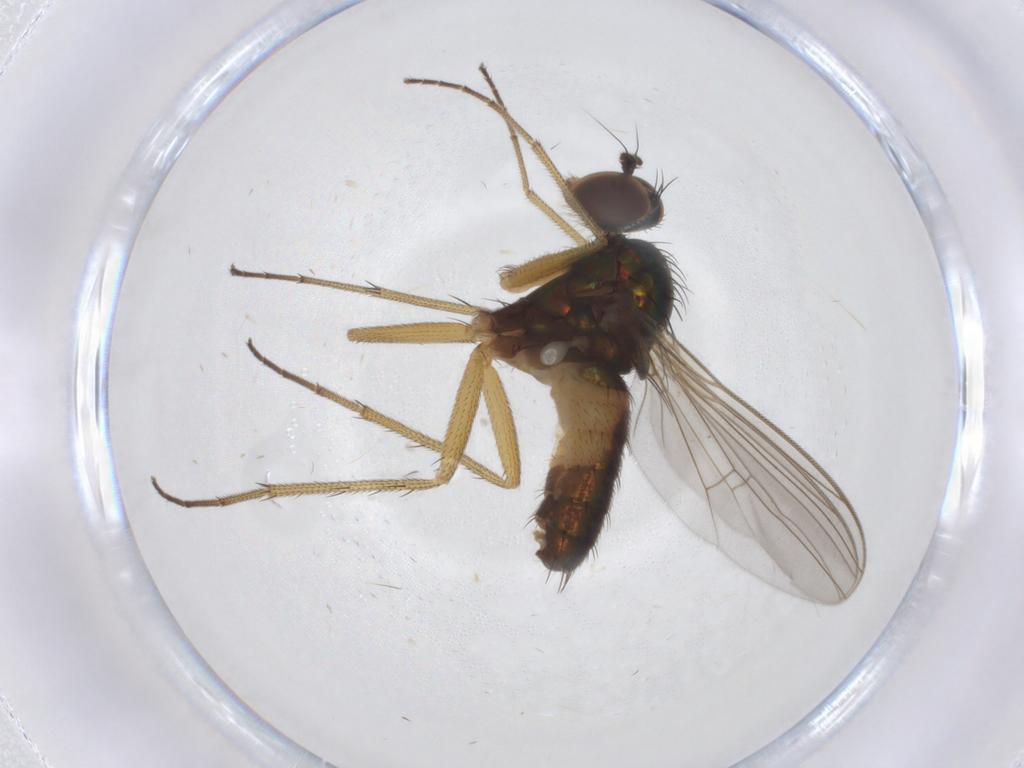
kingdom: Animalia
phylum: Arthropoda
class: Insecta
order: Diptera
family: Dolichopodidae
